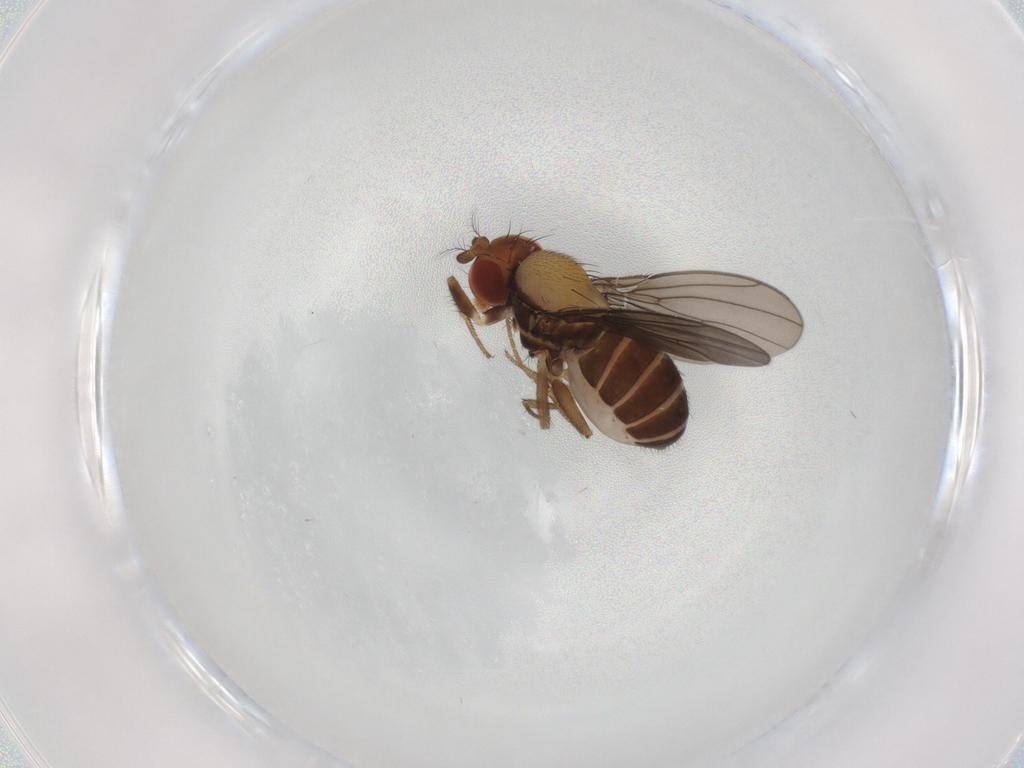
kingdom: Animalia
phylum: Arthropoda
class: Insecta
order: Diptera
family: Drosophilidae
